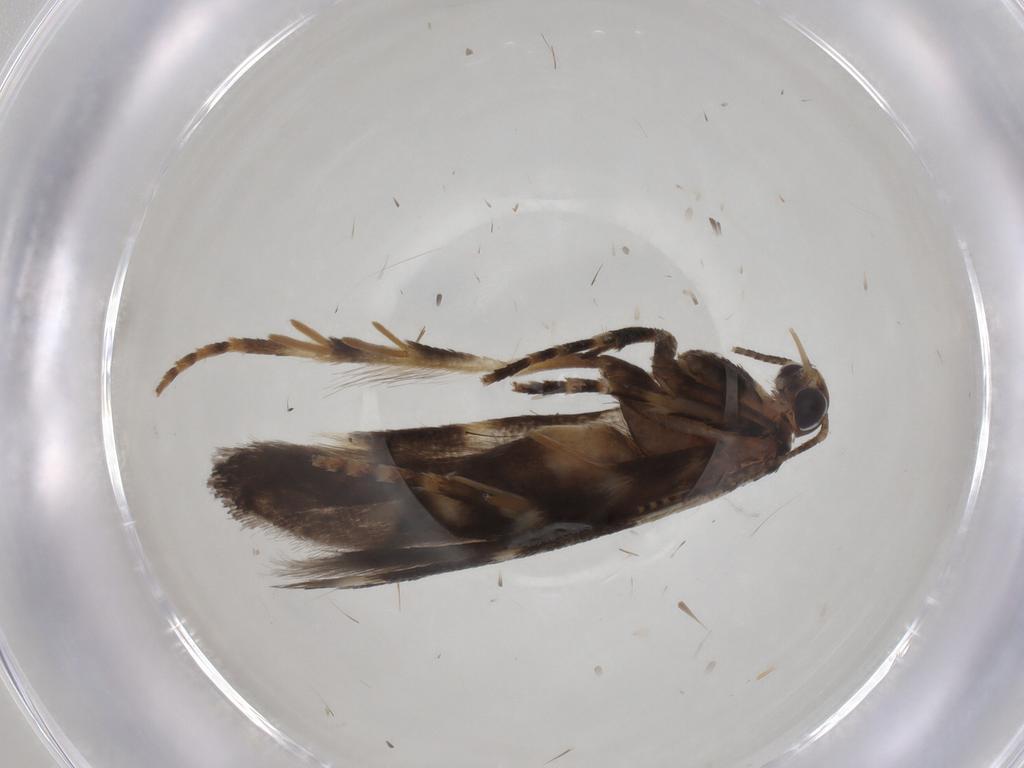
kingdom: Animalia
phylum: Arthropoda
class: Insecta
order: Lepidoptera
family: Gelechiidae
